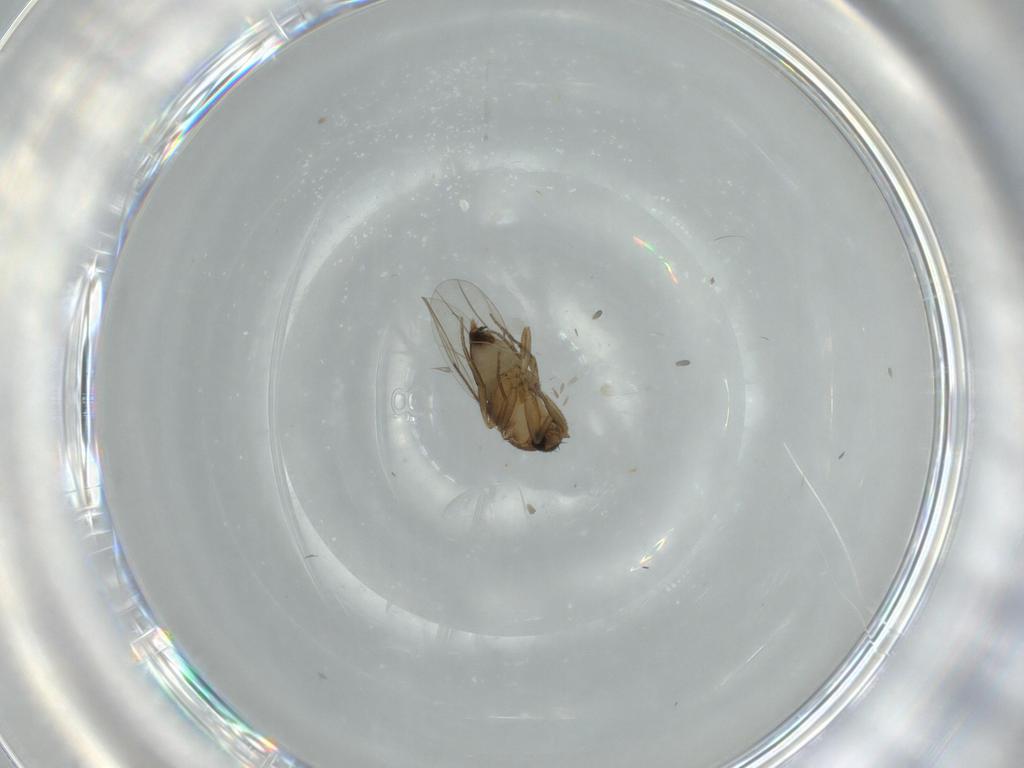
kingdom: Animalia
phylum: Arthropoda
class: Insecta
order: Diptera
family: Phoridae
